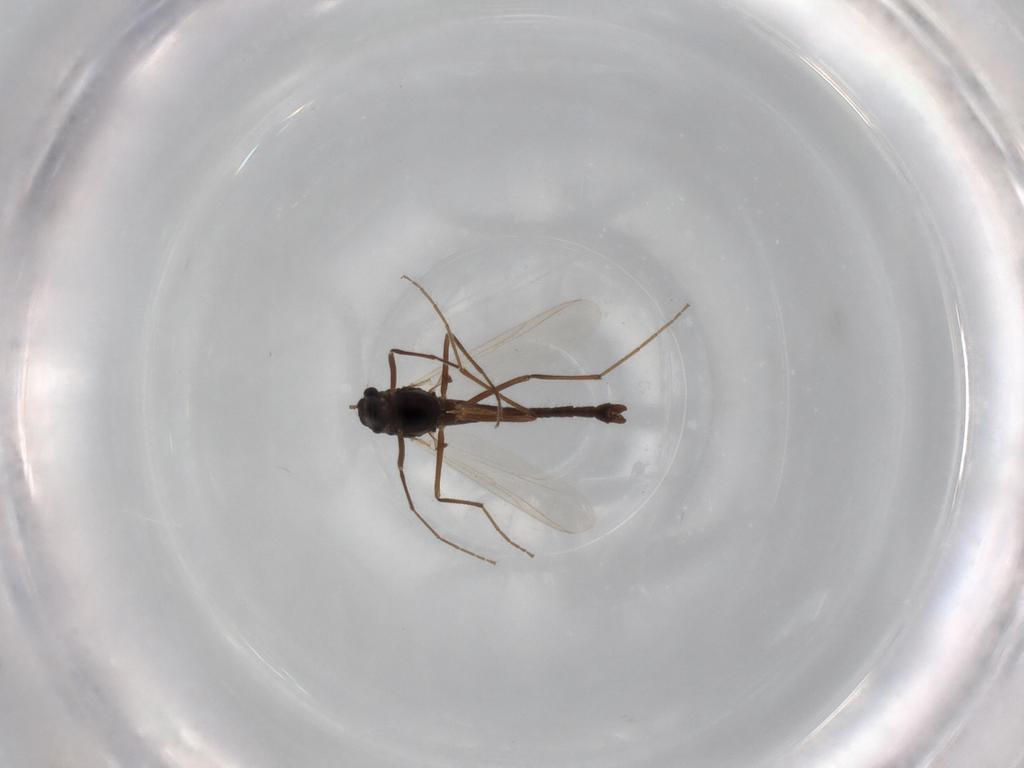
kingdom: Animalia
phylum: Arthropoda
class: Insecta
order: Diptera
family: Chironomidae
